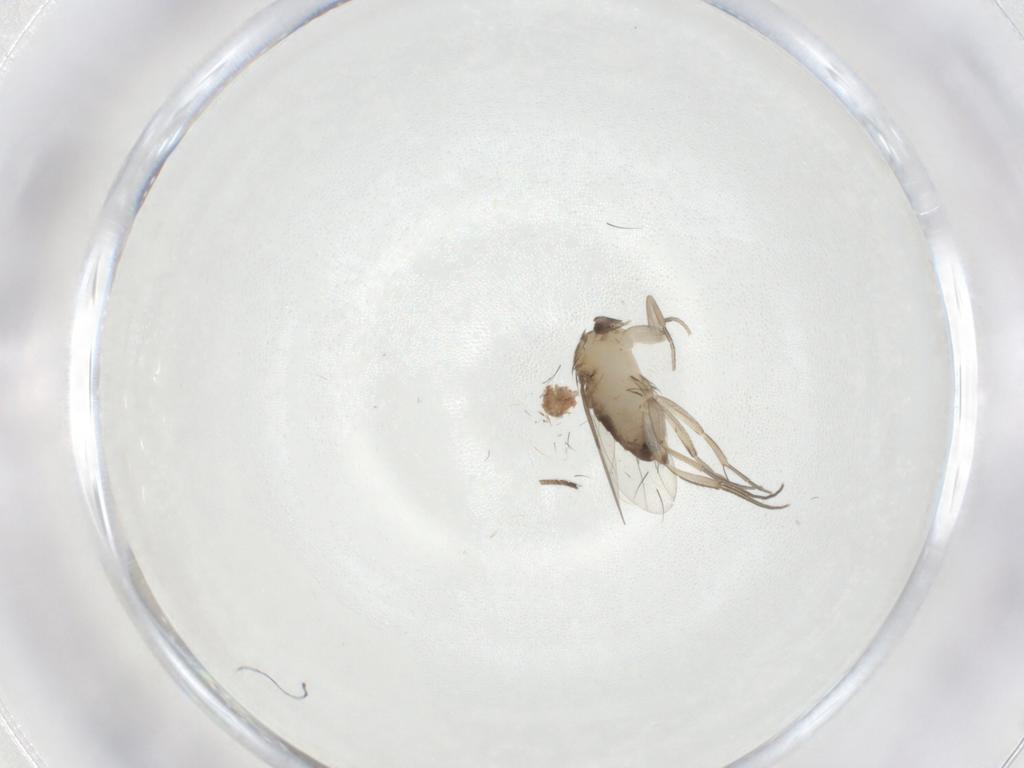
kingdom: Animalia
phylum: Arthropoda
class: Insecta
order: Diptera
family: Phoridae
